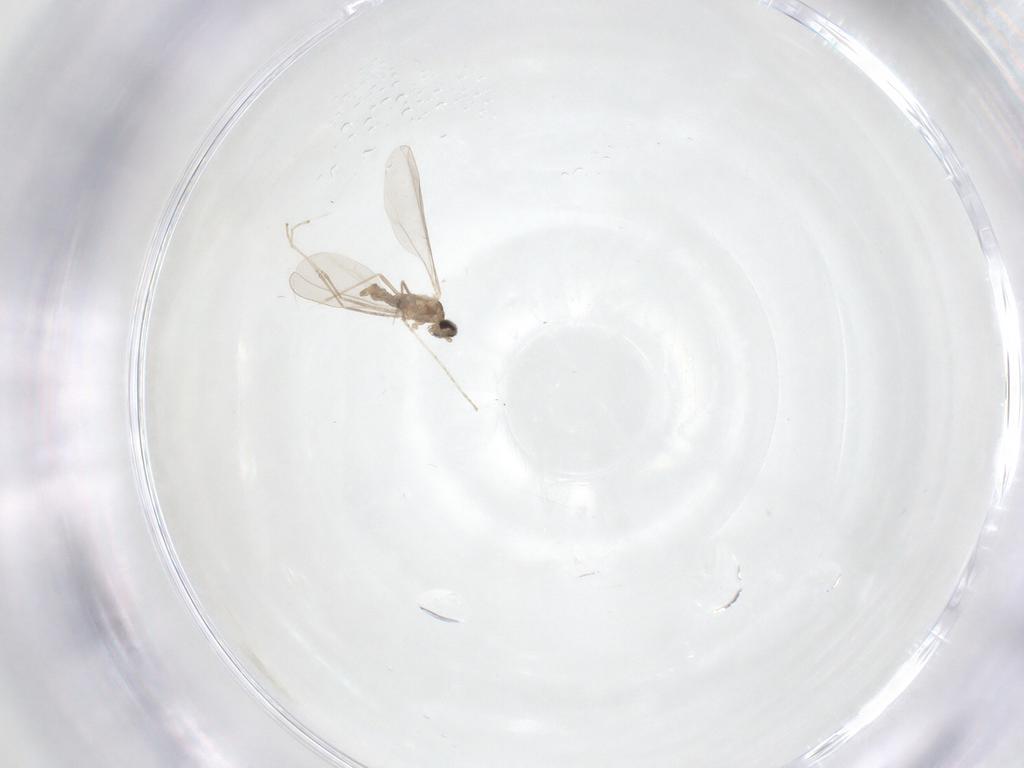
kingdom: Animalia
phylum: Arthropoda
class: Insecta
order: Diptera
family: Cecidomyiidae
